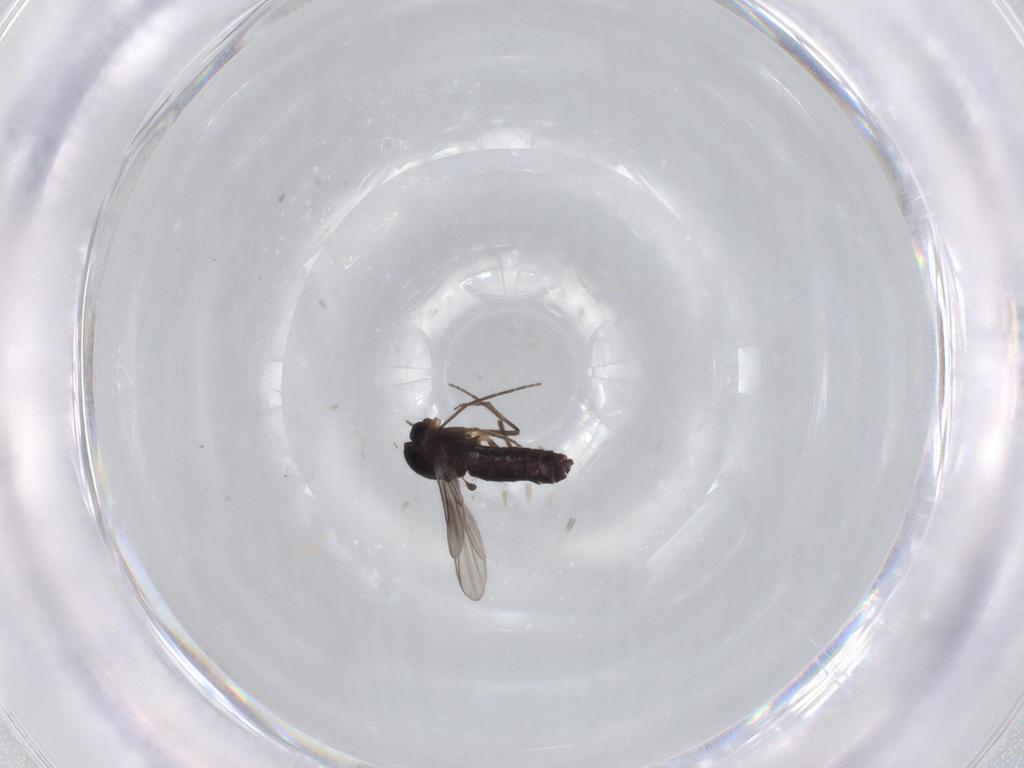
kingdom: Animalia
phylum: Arthropoda
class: Insecta
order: Diptera
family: Chironomidae
